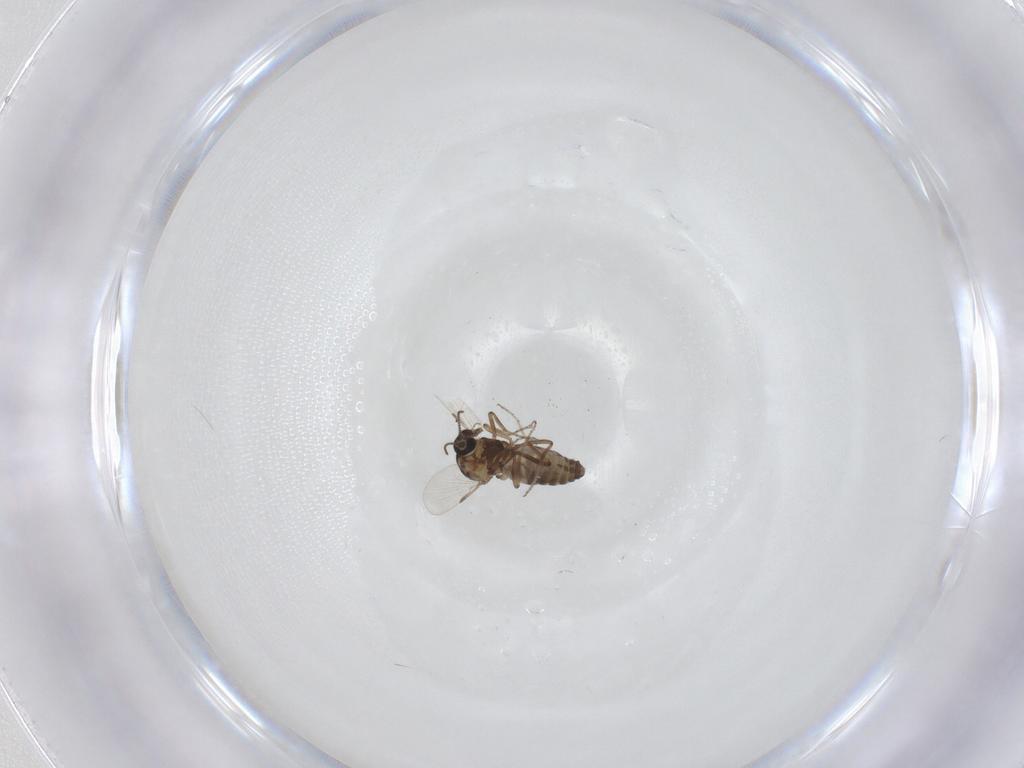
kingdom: Animalia
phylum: Arthropoda
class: Insecta
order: Diptera
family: Ceratopogonidae
